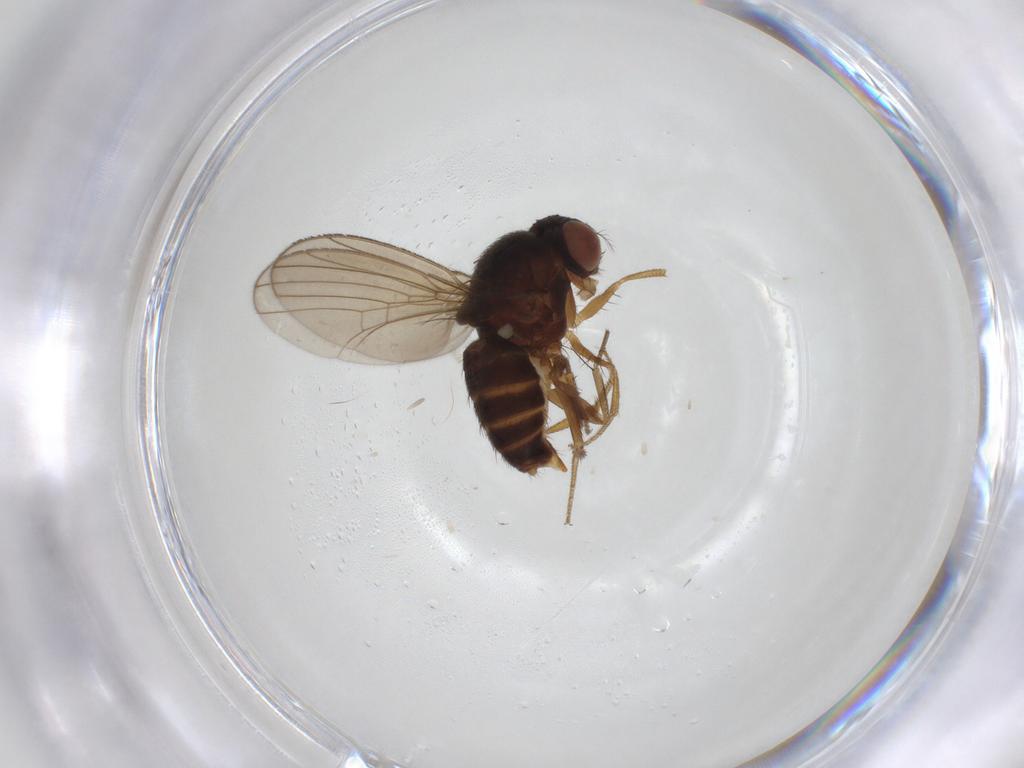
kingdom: Animalia
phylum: Arthropoda
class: Insecta
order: Diptera
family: Drosophilidae
